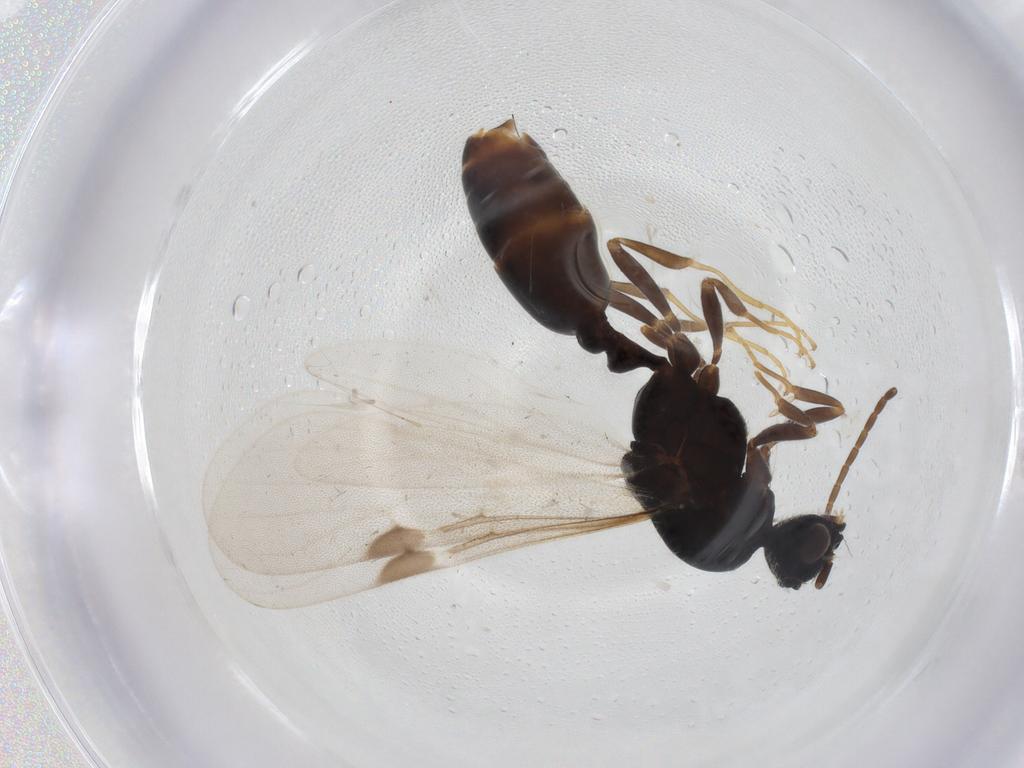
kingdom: Animalia
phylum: Arthropoda
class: Insecta
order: Hymenoptera
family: Formicidae
